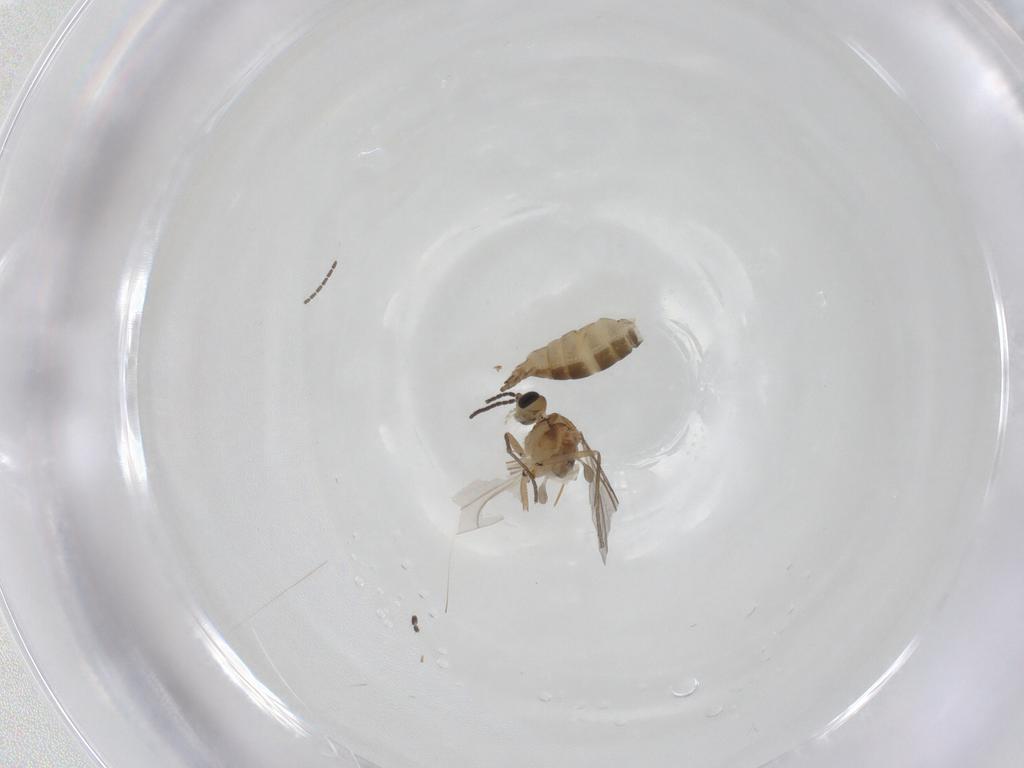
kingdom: Animalia
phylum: Arthropoda
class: Insecta
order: Diptera
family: Sciaridae
